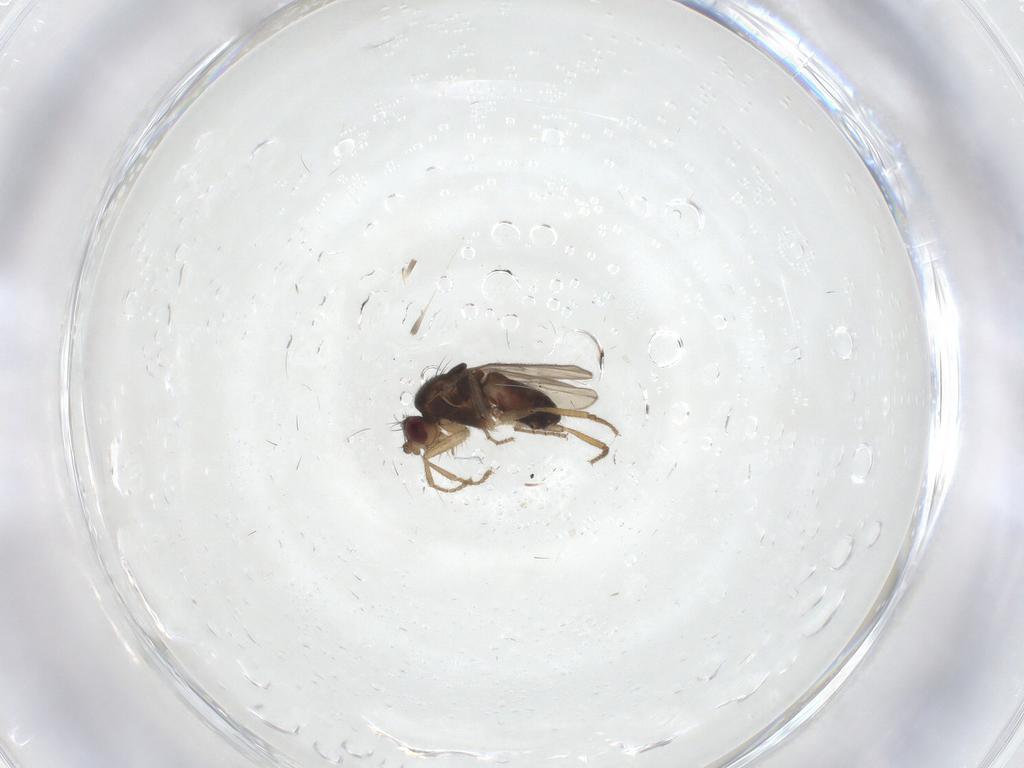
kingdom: Animalia
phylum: Arthropoda
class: Insecta
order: Diptera
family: Sphaeroceridae
